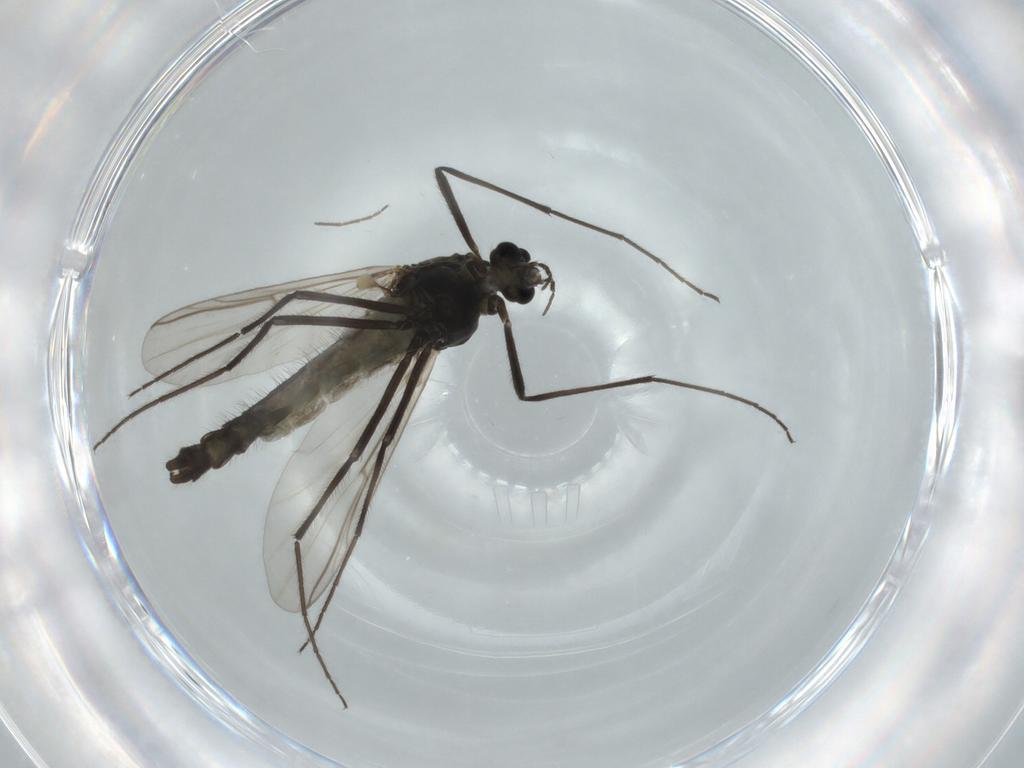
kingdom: Animalia
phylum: Arthropoda
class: Insecta
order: Diptera
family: Chironomidae
